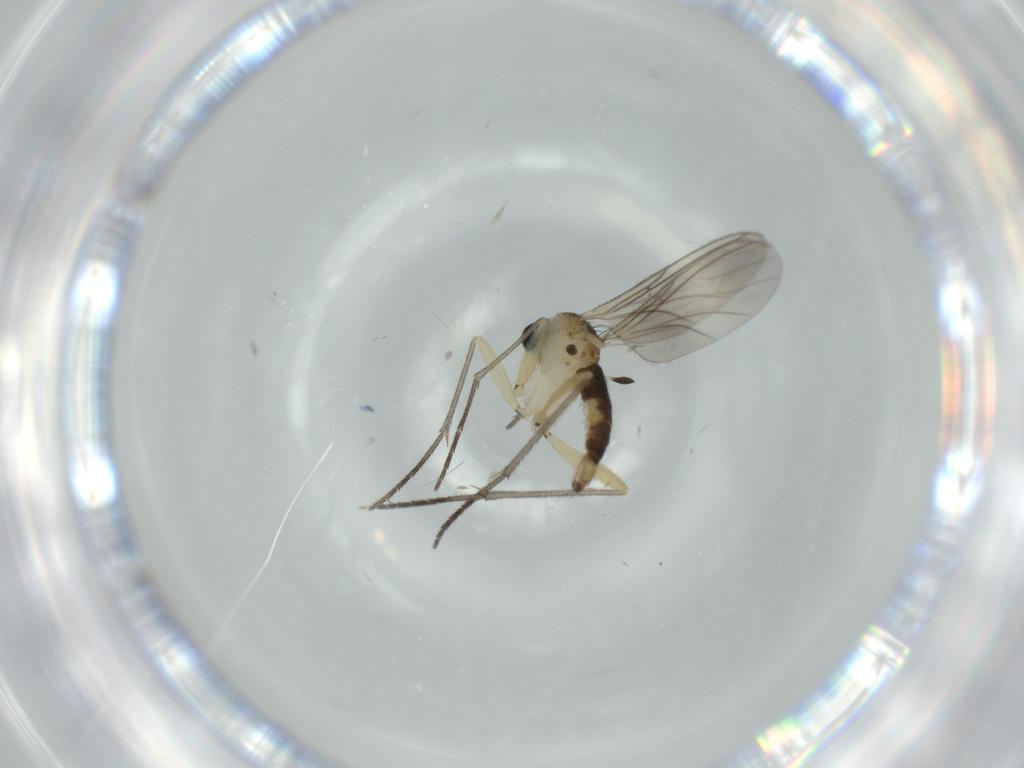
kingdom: Animalia
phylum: Arthropoda
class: Insecta
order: Diptera
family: Sciaridae
